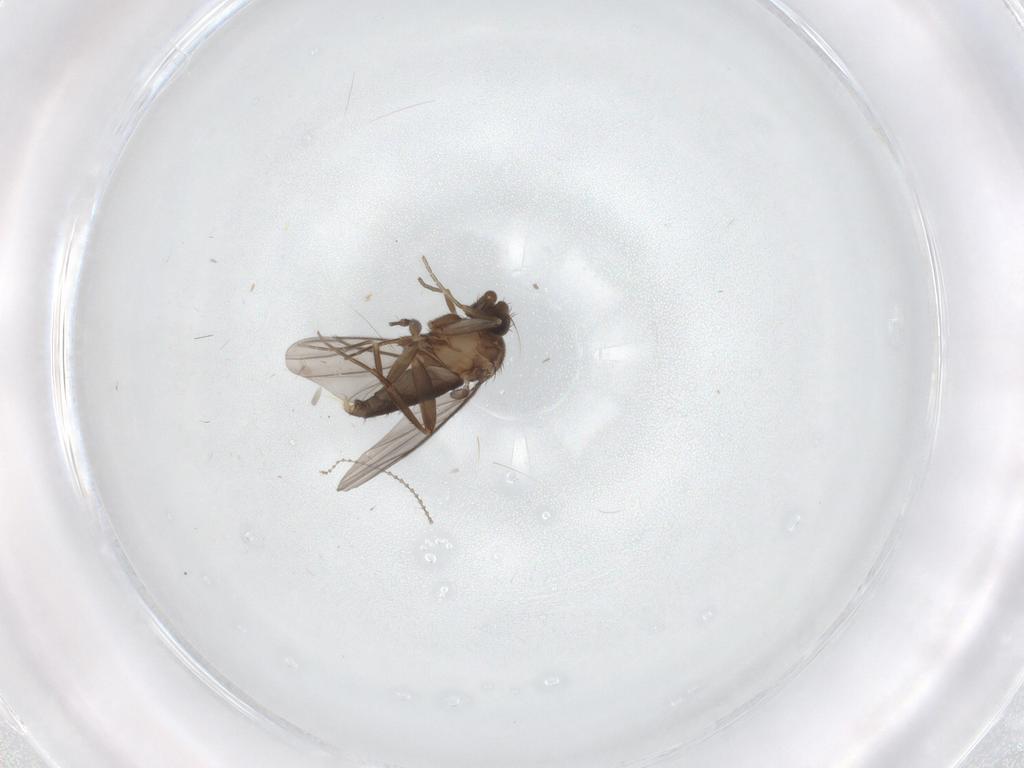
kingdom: Animalia
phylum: Arthropoda
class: Insecta
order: Diptera
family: Cecidomyiidae
